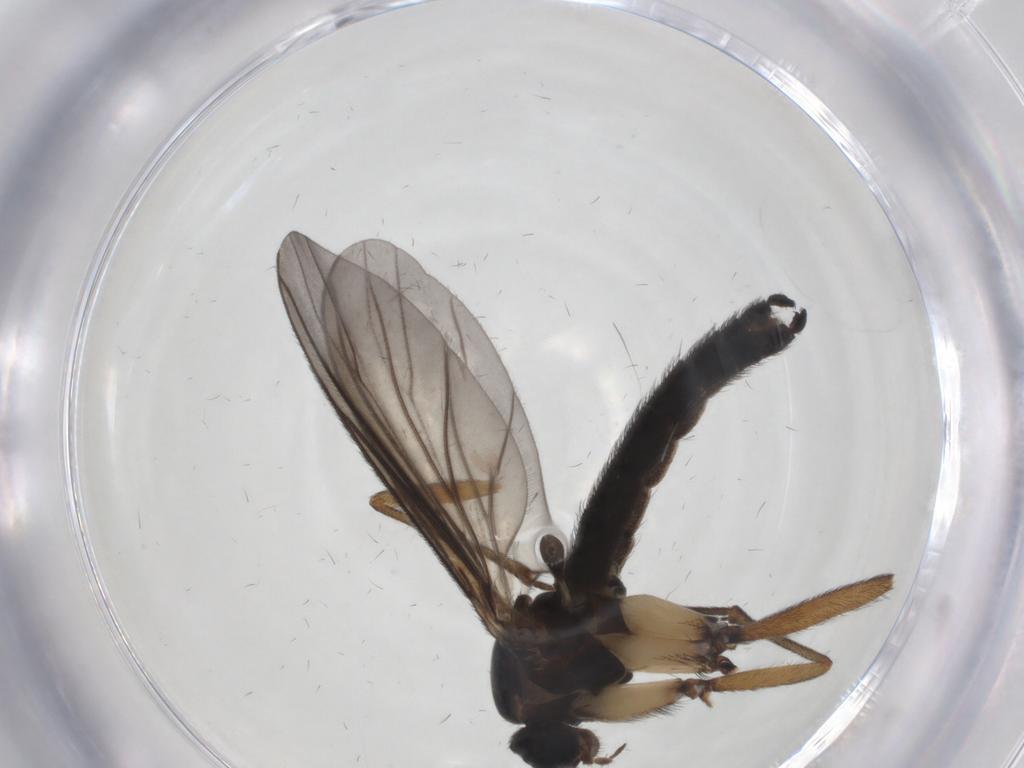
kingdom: Animalia
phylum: Arthropoda
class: Insecta
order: Diptera
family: Sciaridae
